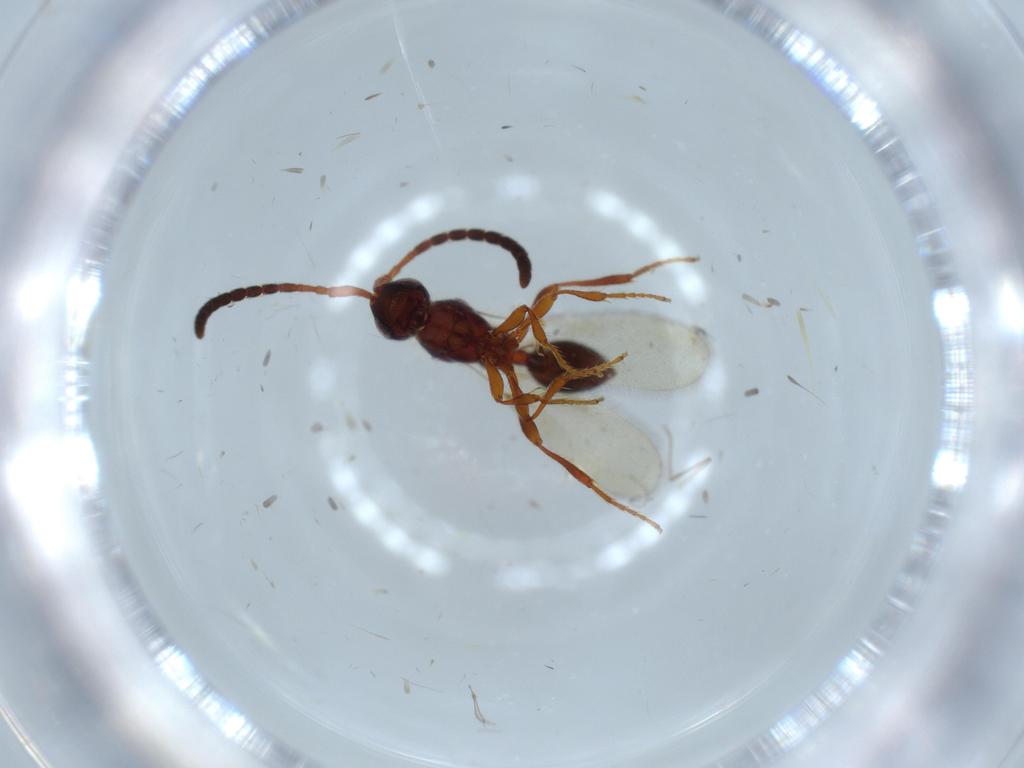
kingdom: Animalia
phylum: Arthropoda
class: Insecta
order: Hymenoptera
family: Diapriidae
